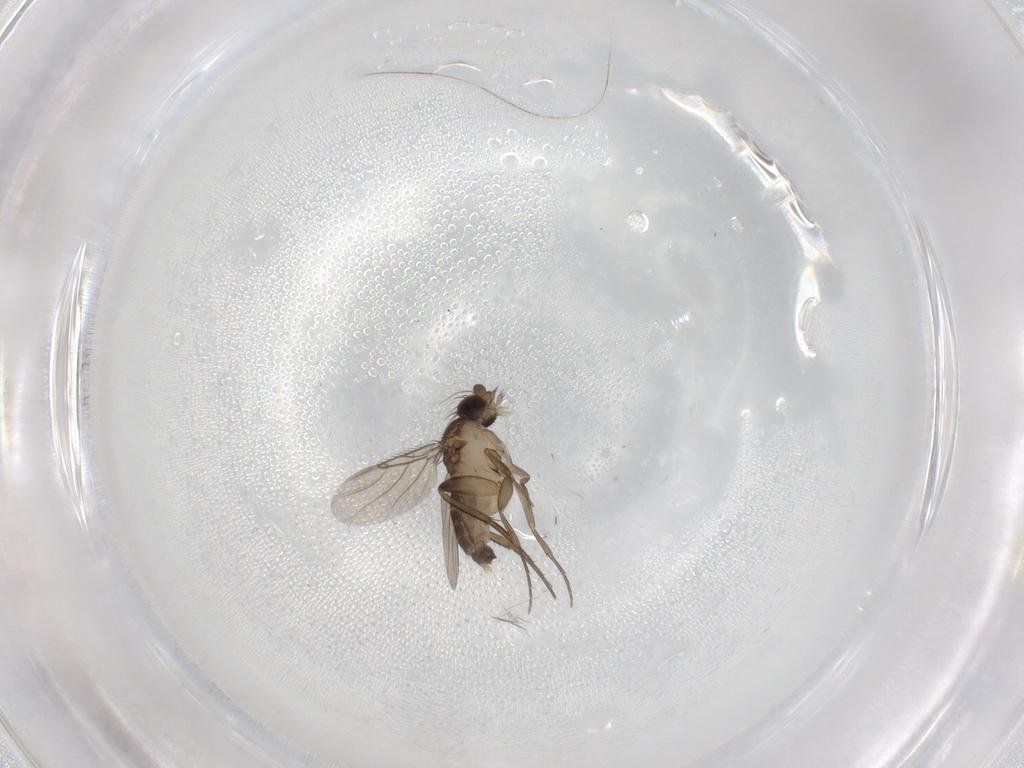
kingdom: Animalia
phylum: Arthropoda
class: Insecta
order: Diptera
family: Phoridae
